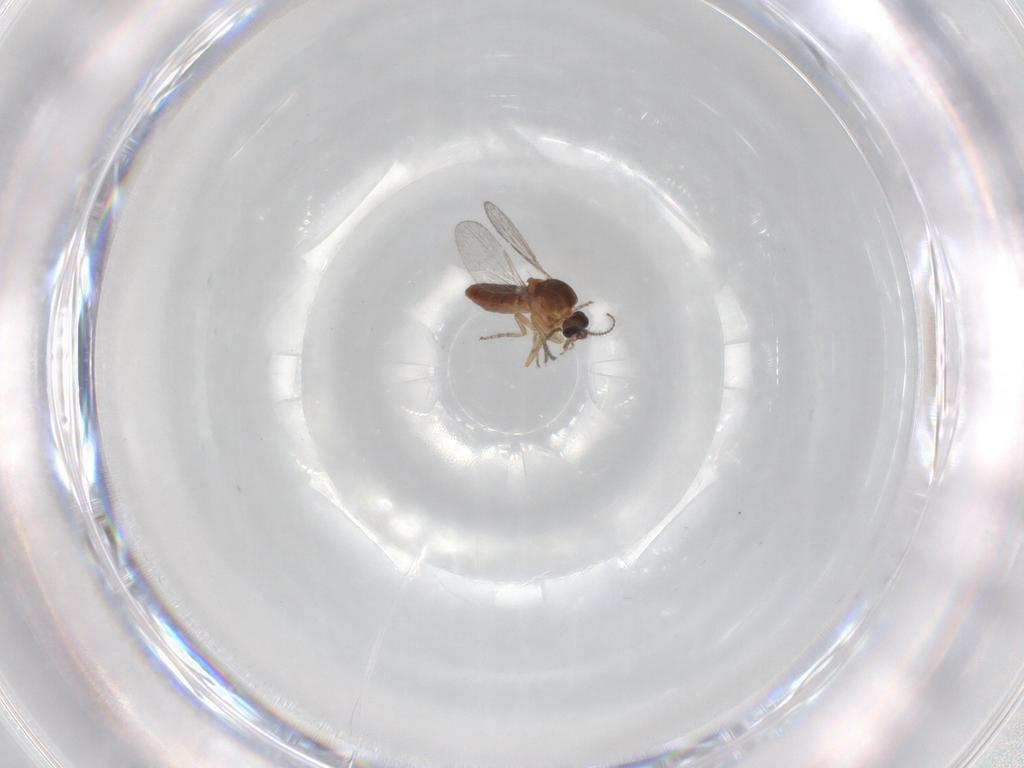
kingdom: Animalia
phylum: Arthropoda
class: Insecta
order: Diptera
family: Ceratopogonidae
